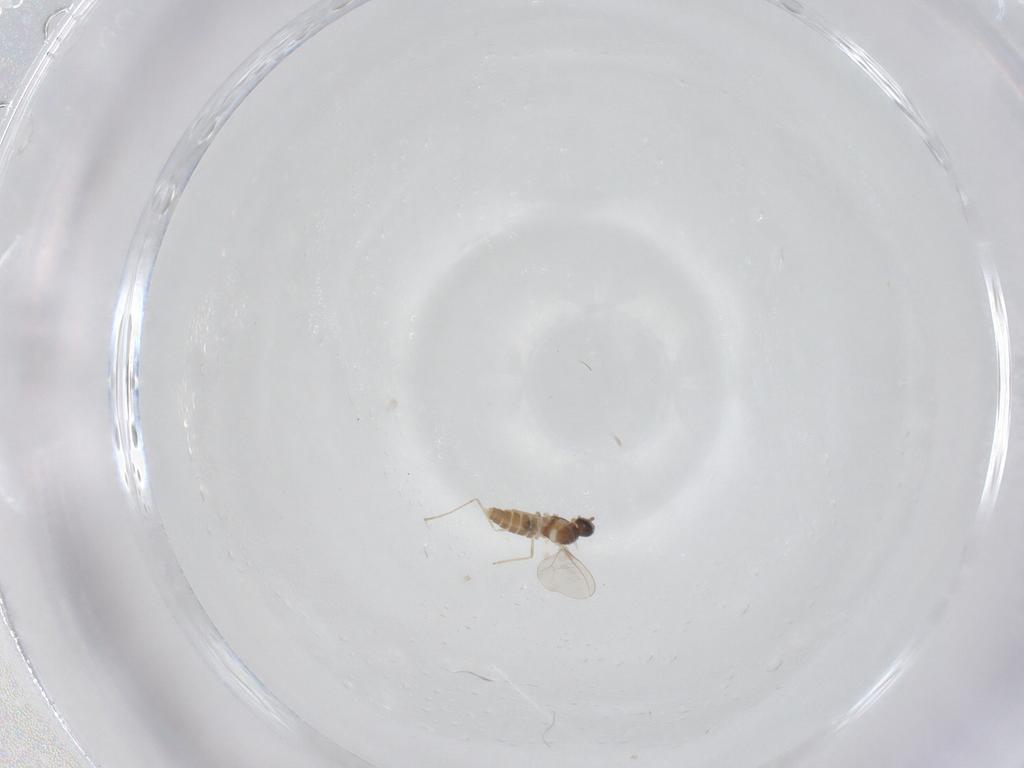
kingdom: Animalia
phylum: Arthropoda
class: Insecta
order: Diptera
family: Cecidomyiidae
